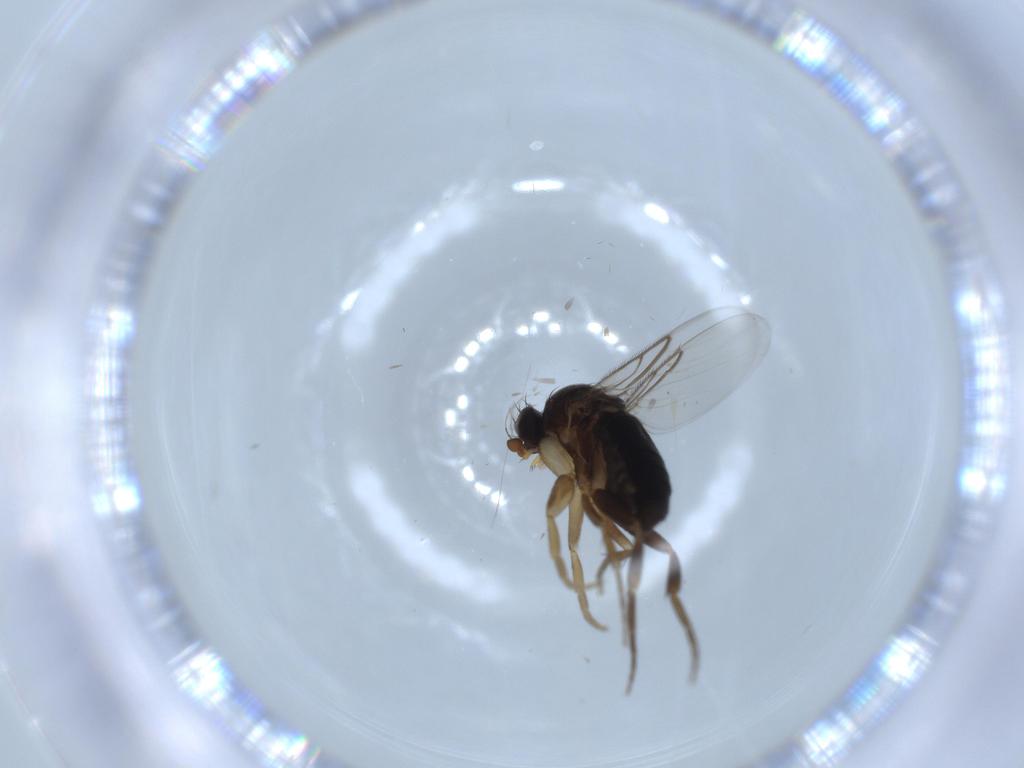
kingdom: Animalia
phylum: Arthropoda
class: Insecta
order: Diptera
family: Phoridae
